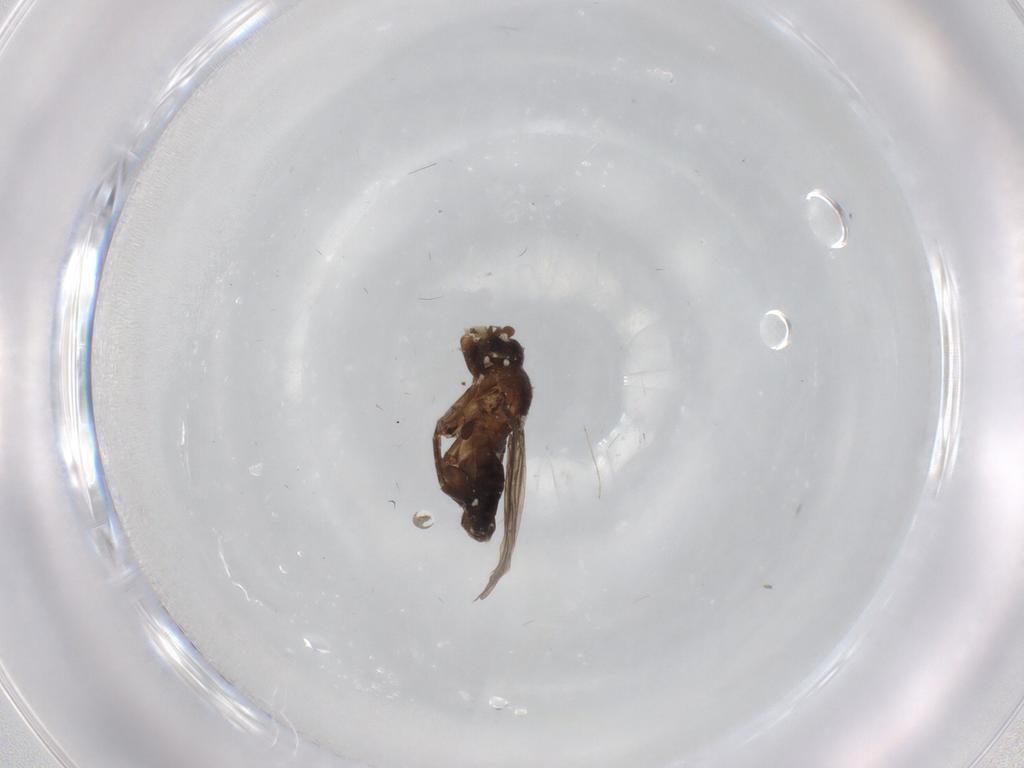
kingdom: Animalia
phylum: Arthropoda
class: Insecta
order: Diptera
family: Cecidomyiidae
